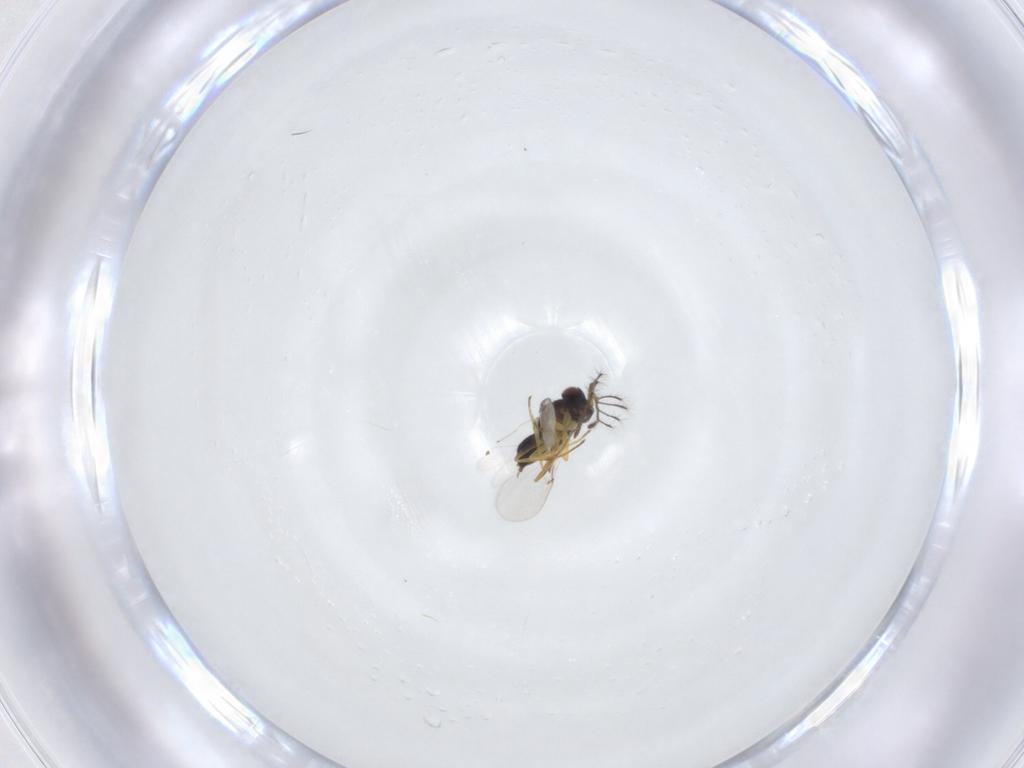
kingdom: Animalia
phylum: Arthropoda
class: Insecta
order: Hymenoptera
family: Encyrtidae
